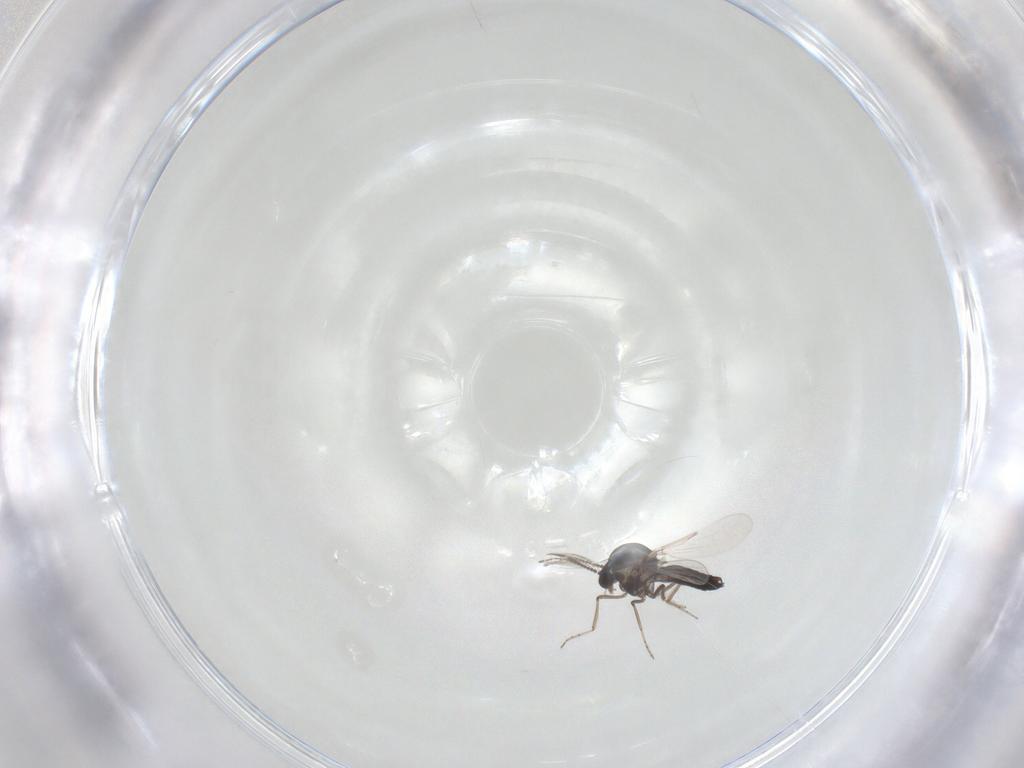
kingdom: Animalia
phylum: Arthropoda
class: Insecta
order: Diptera
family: Ceratopogonidae
